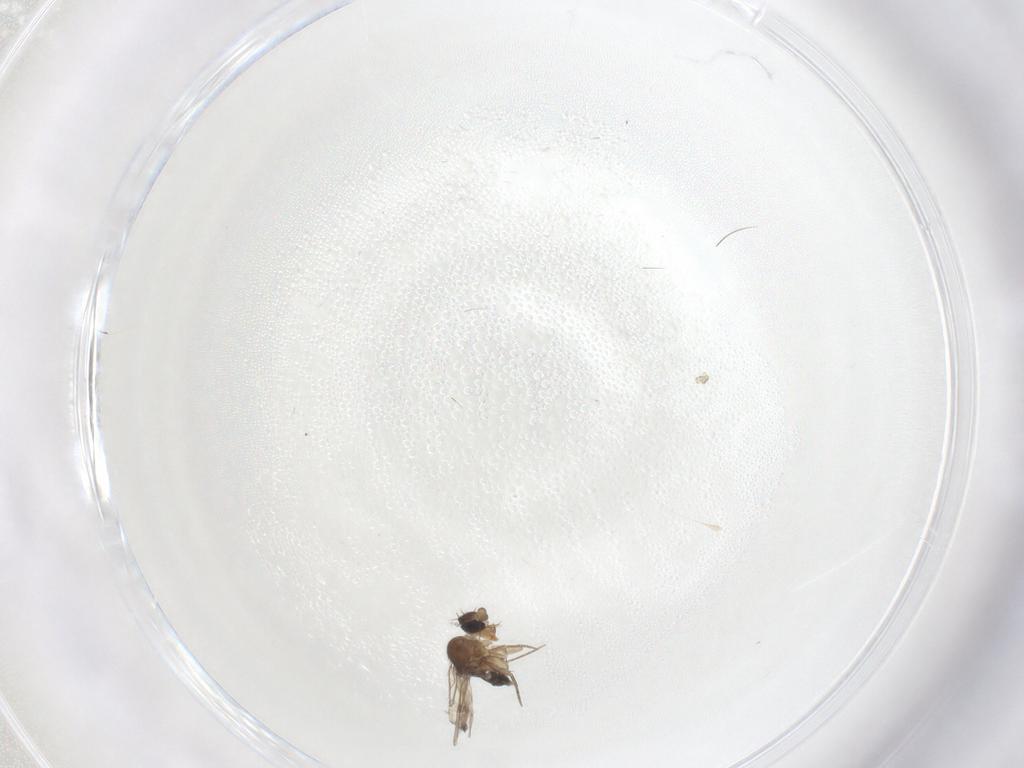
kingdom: Animalia
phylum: Arthropoda
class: Insecta
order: Diptera
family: Phoridae
